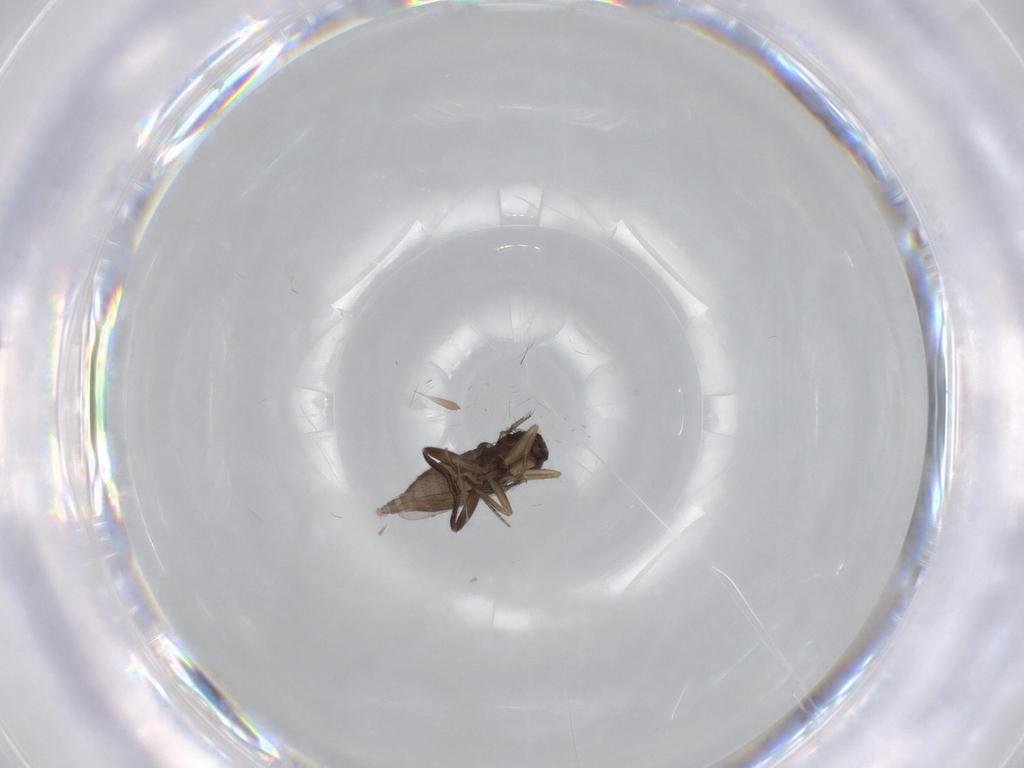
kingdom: Animalia
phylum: Arthropoda
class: Insecta
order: Diptera
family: Phoridae
